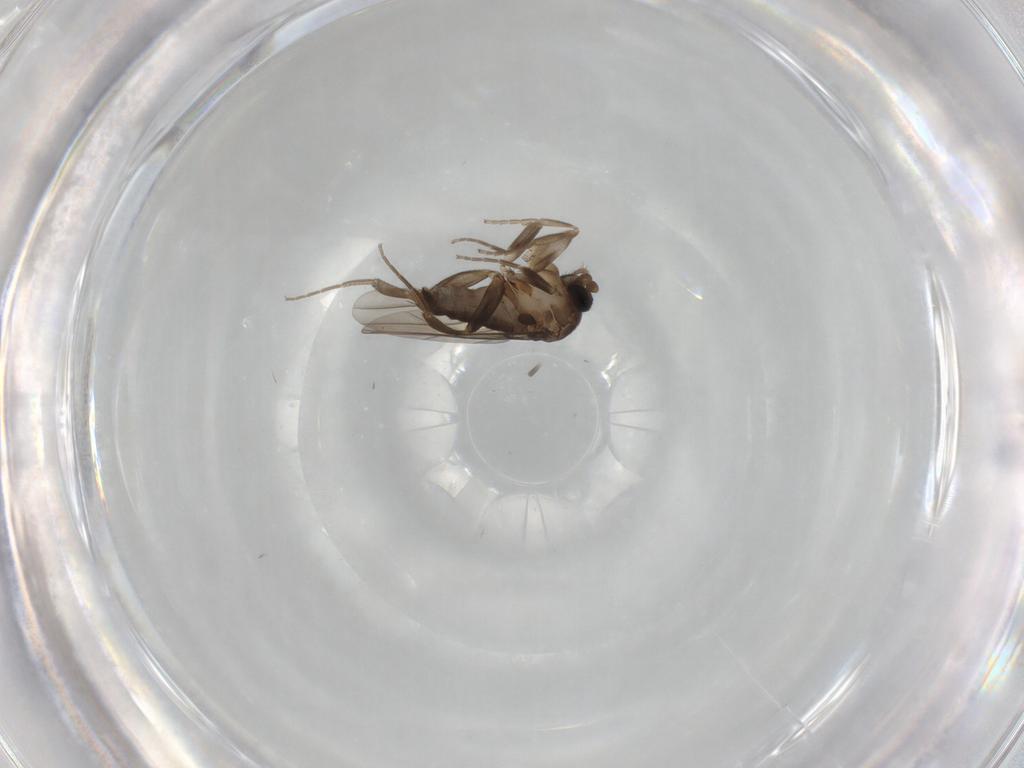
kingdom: Animalia
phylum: Arthropoda
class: Insecta
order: Diptera
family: Phoridae
